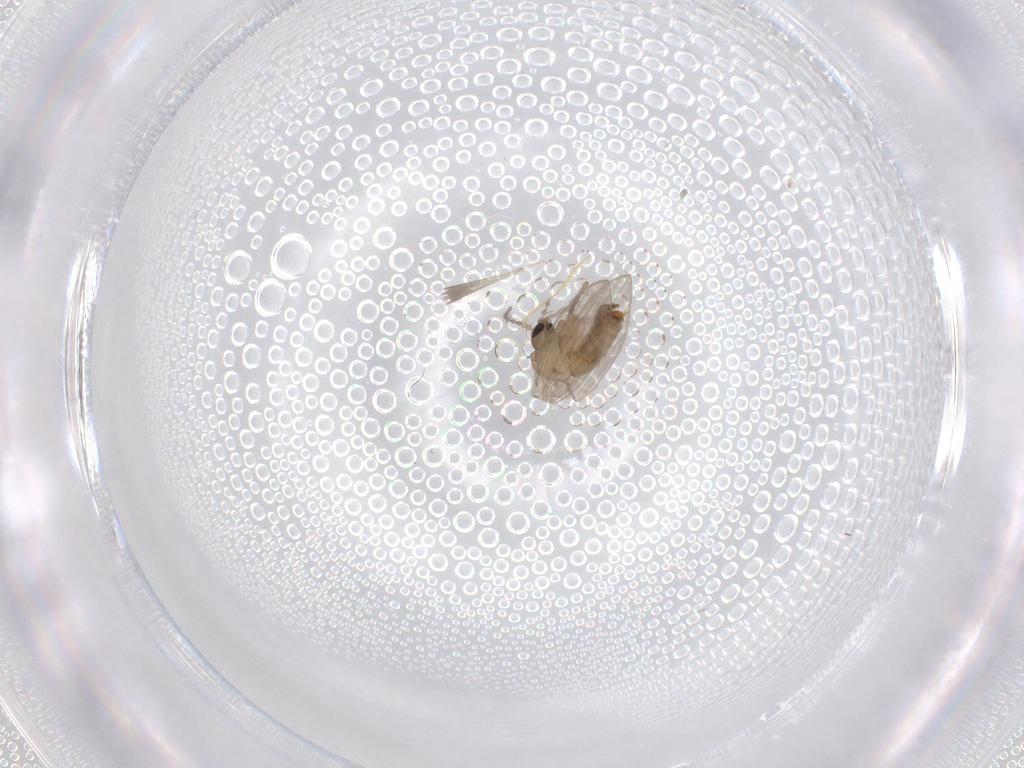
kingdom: Animalia
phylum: Arthropoda
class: Insecta
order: Diptera
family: Psychodidae
